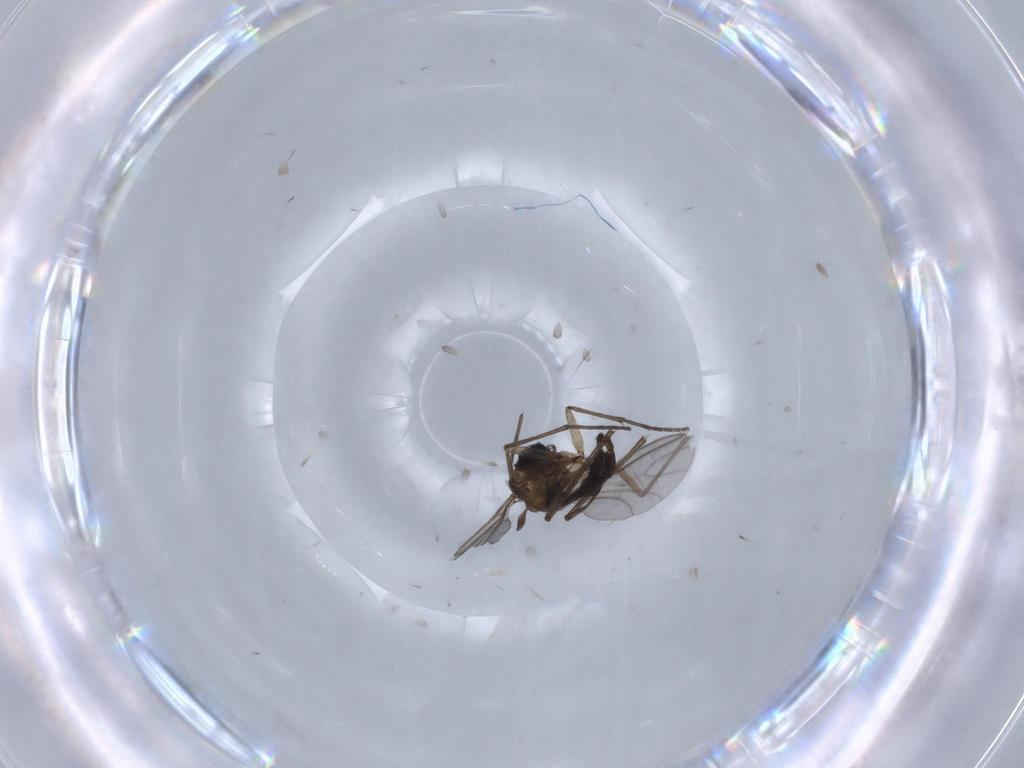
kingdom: Animalia
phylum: Arthropoda
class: Insecta
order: Diptera
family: Sciaridae
